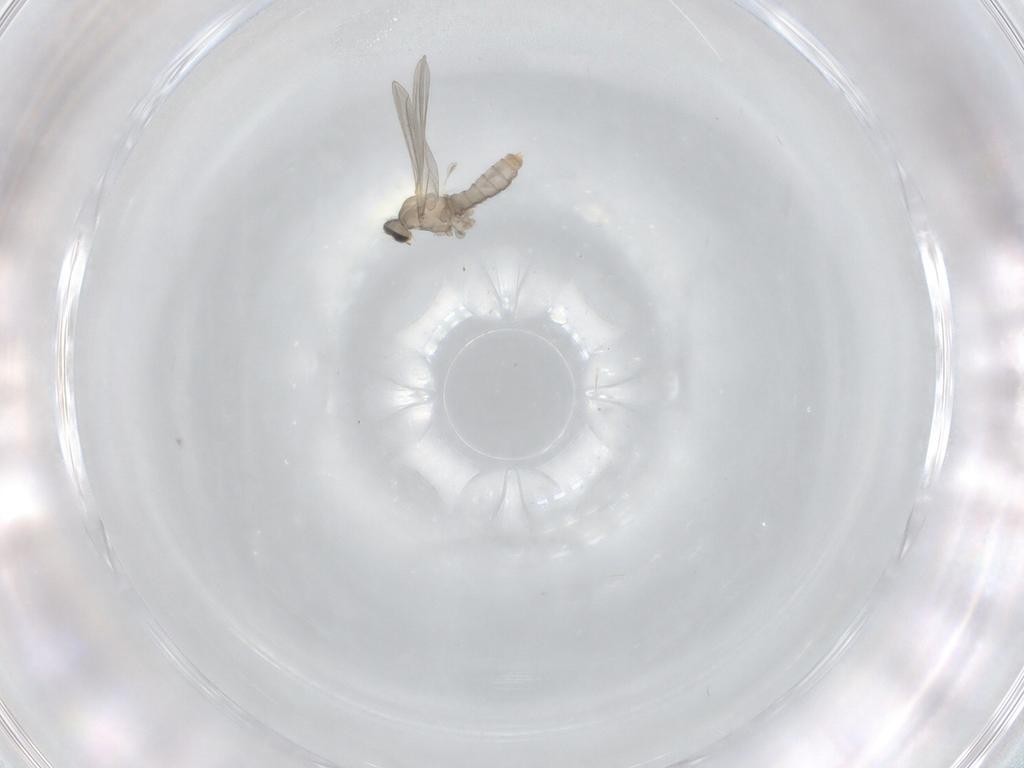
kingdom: Animalia
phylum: Arthropoda
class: Insecta
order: Diptera
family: Cecidomyiidae
